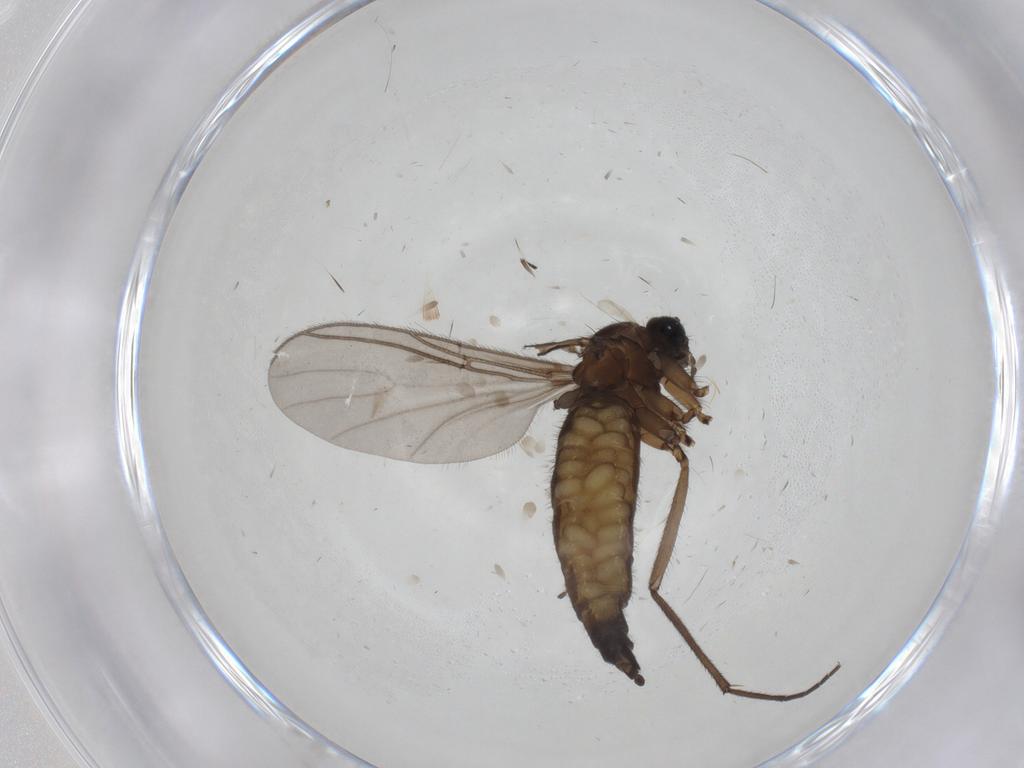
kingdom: Animalia
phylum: Arthropoda
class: Insecta
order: Diptera
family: Sciaridae
